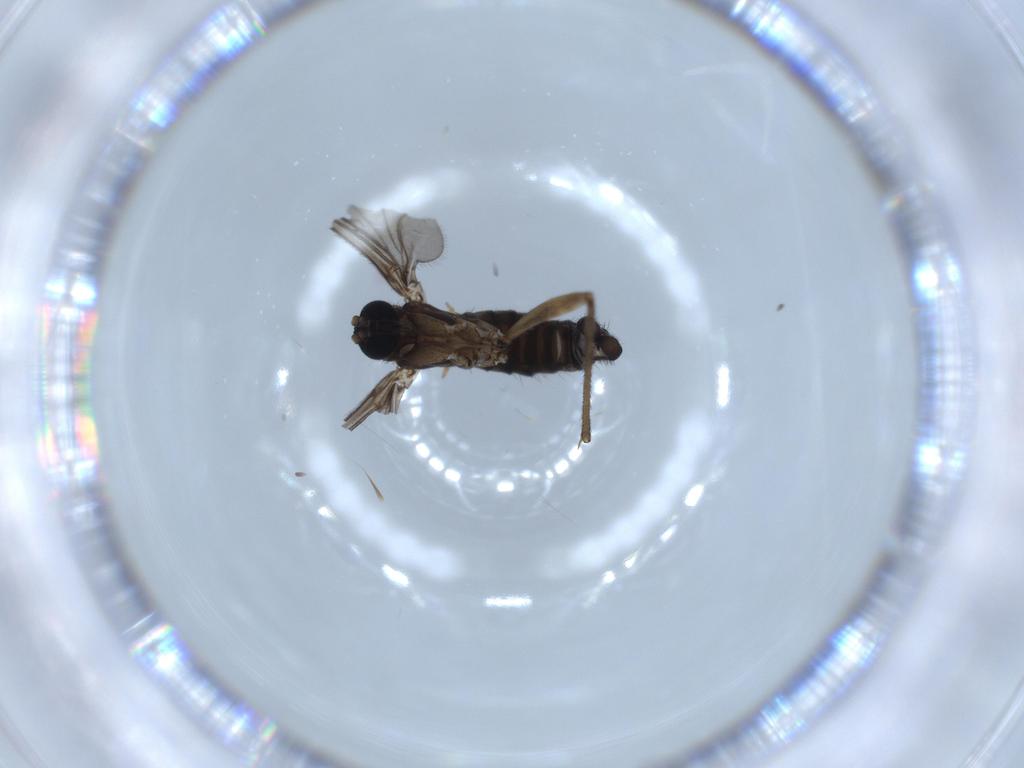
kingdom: Animalia
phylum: Arthropoda
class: Insecta
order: Diptera
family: Sciaridae
